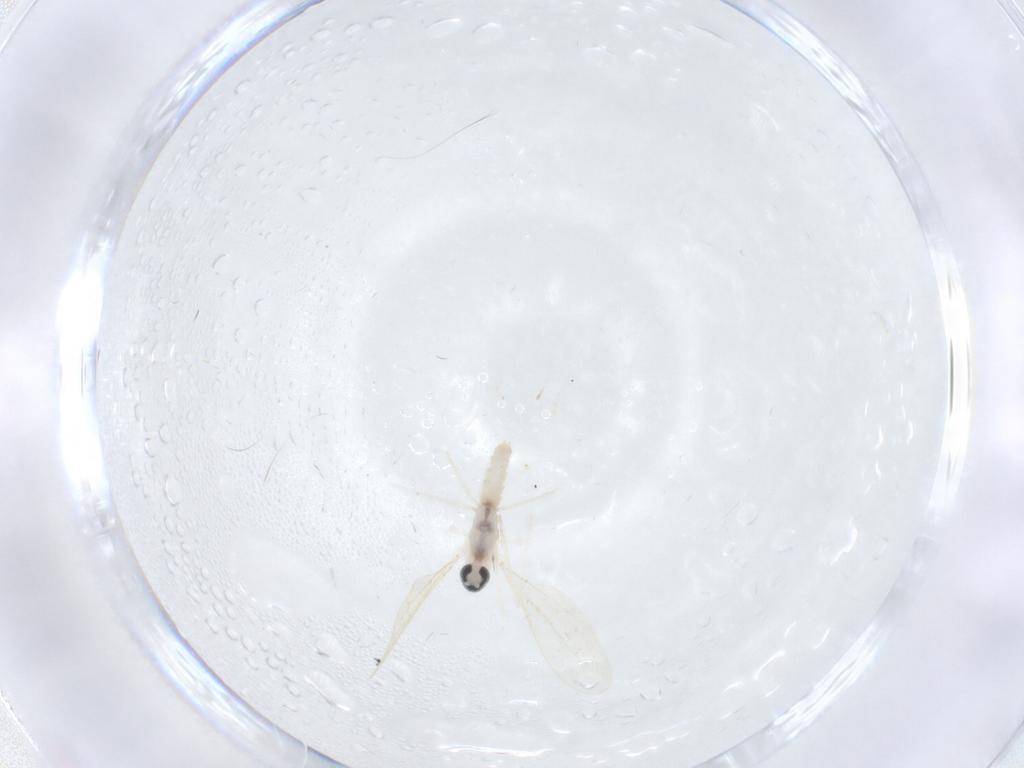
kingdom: Animalia
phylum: Arthropoda
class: Insecta
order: Diptera
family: Cecidomyiidae
